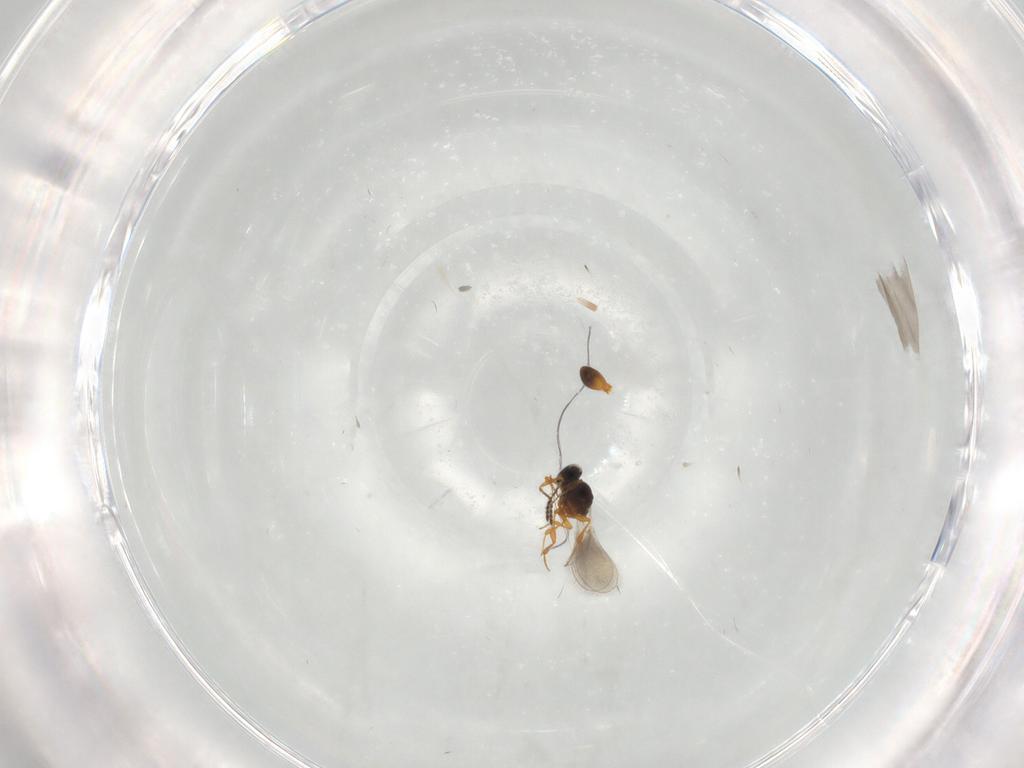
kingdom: Animalia
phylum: Arthropoda
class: Insecta
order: Hymenoptera
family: Platygastridae
